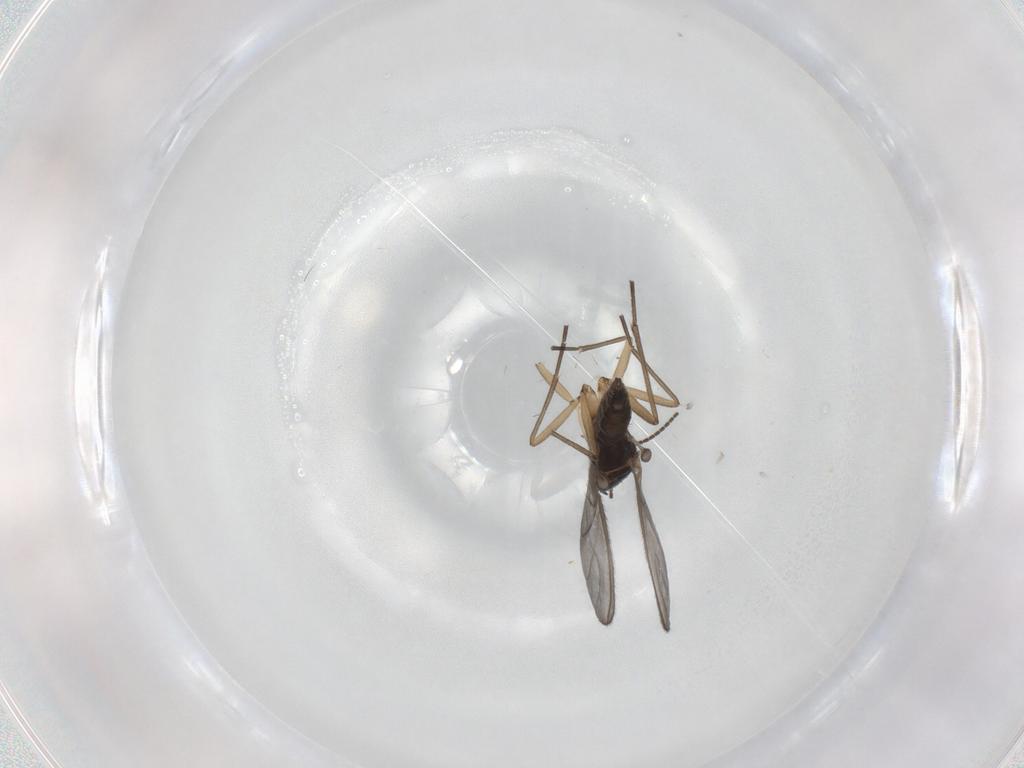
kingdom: Animalia
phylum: Arthropoda
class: Insecta
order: Diptera
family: Sciaridae
